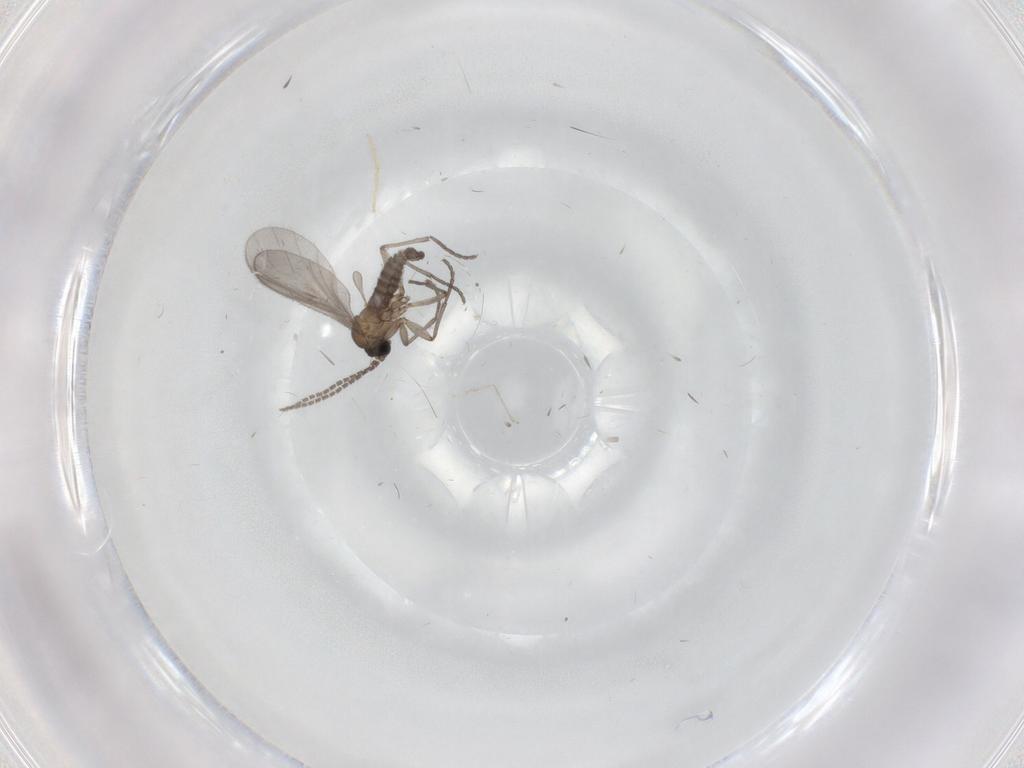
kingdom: Animalia
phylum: Arthropoda
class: Insecta
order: Diptera
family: Sciaridae
